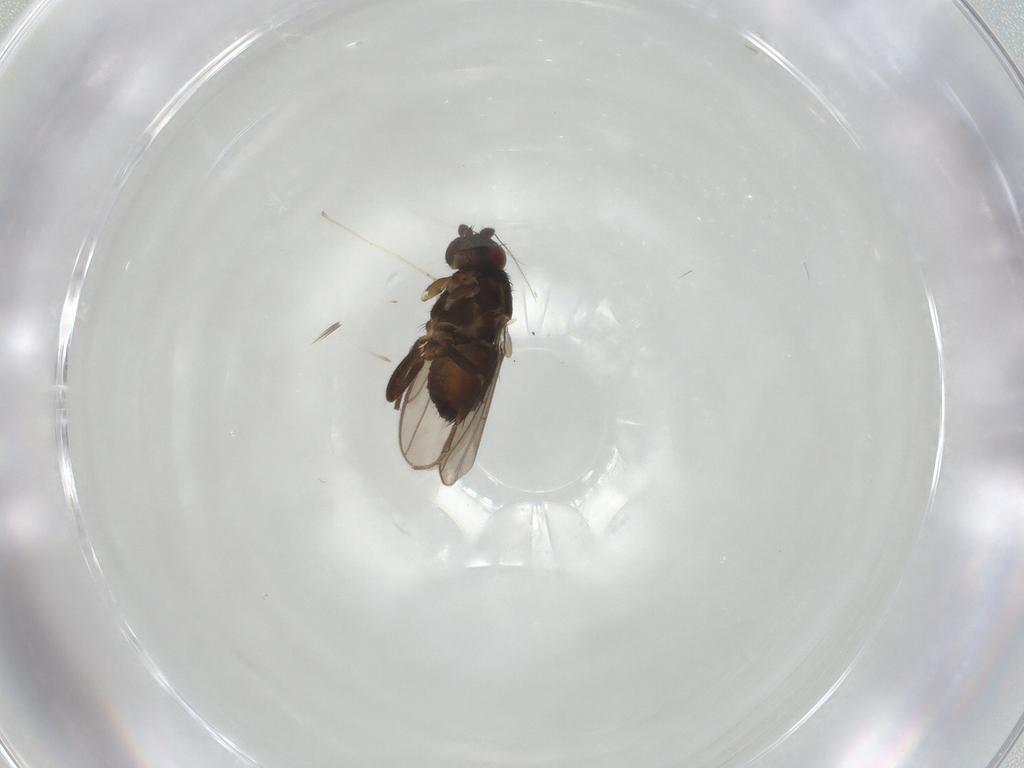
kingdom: Animalia
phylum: Arthropoda
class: Insecta
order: Diptera
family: Sphaeroceridae
